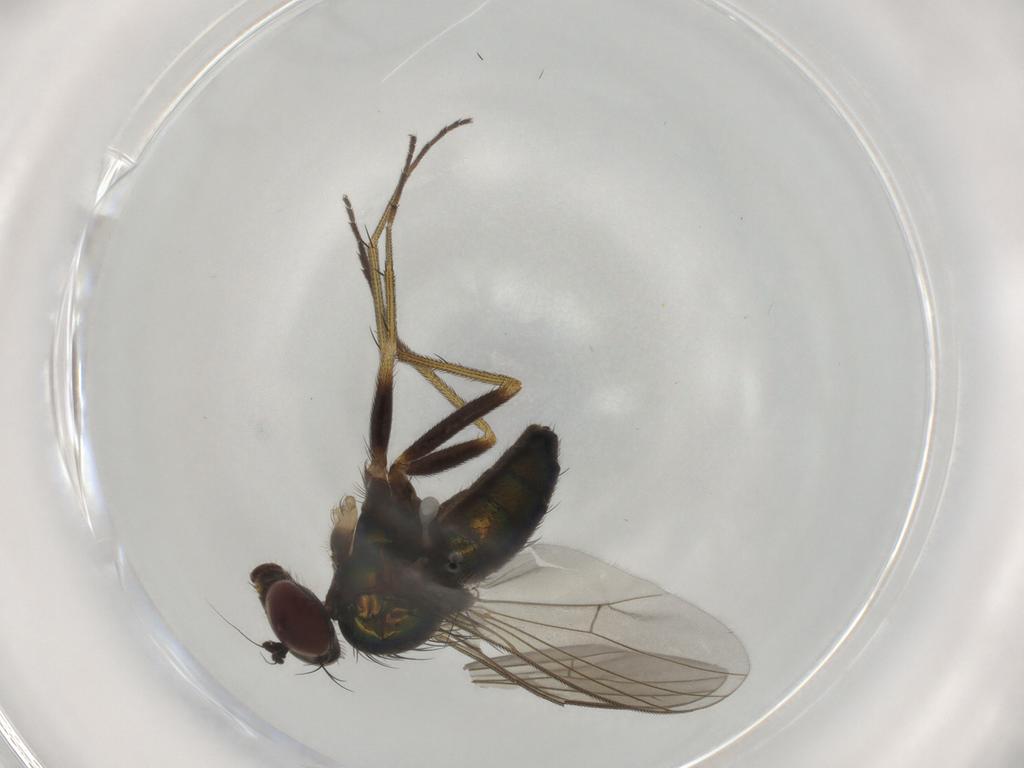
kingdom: Animalia
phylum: Arthropoda
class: Insecta
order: Diptera
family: Dolichopodidae
